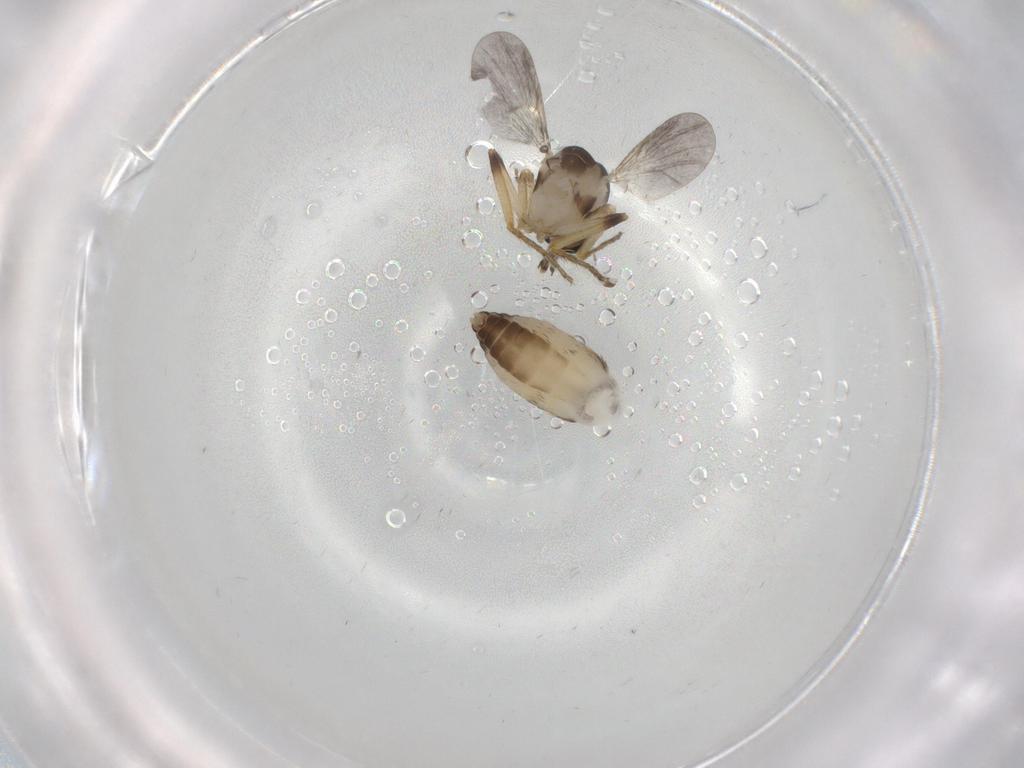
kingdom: Animalia
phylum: Arthropoda
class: Insecta
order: Diptera
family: Ceratopogonidae
